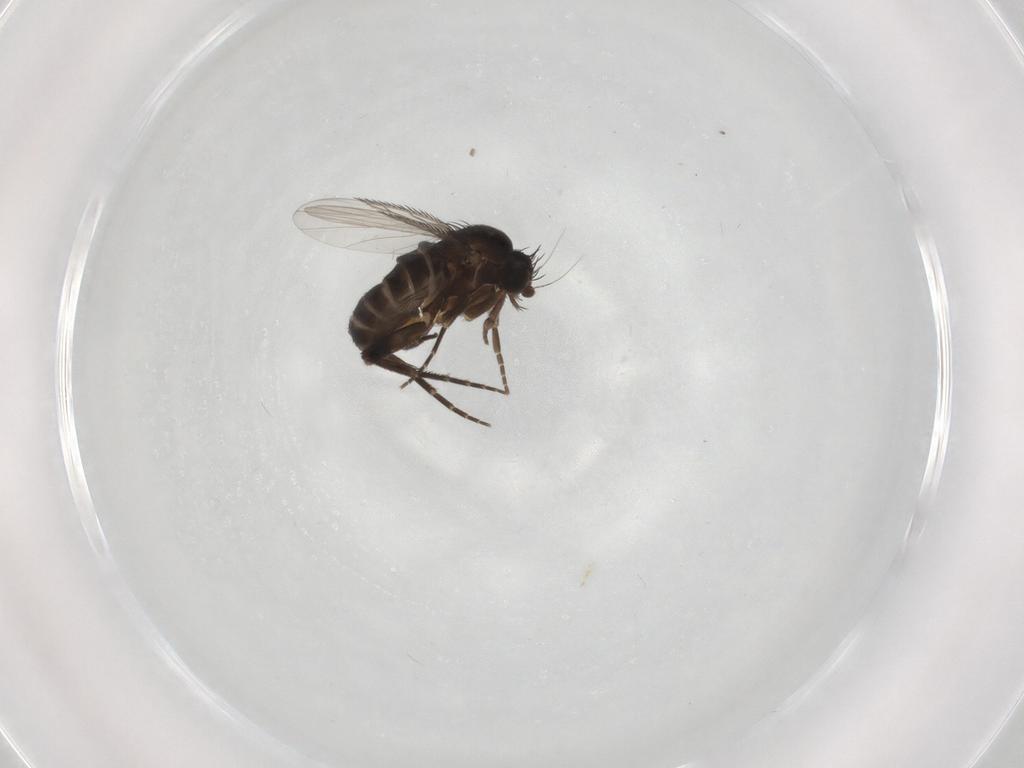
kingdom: Animalia
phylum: Arthropoda
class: Insecta
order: Diptera
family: Phoridae
